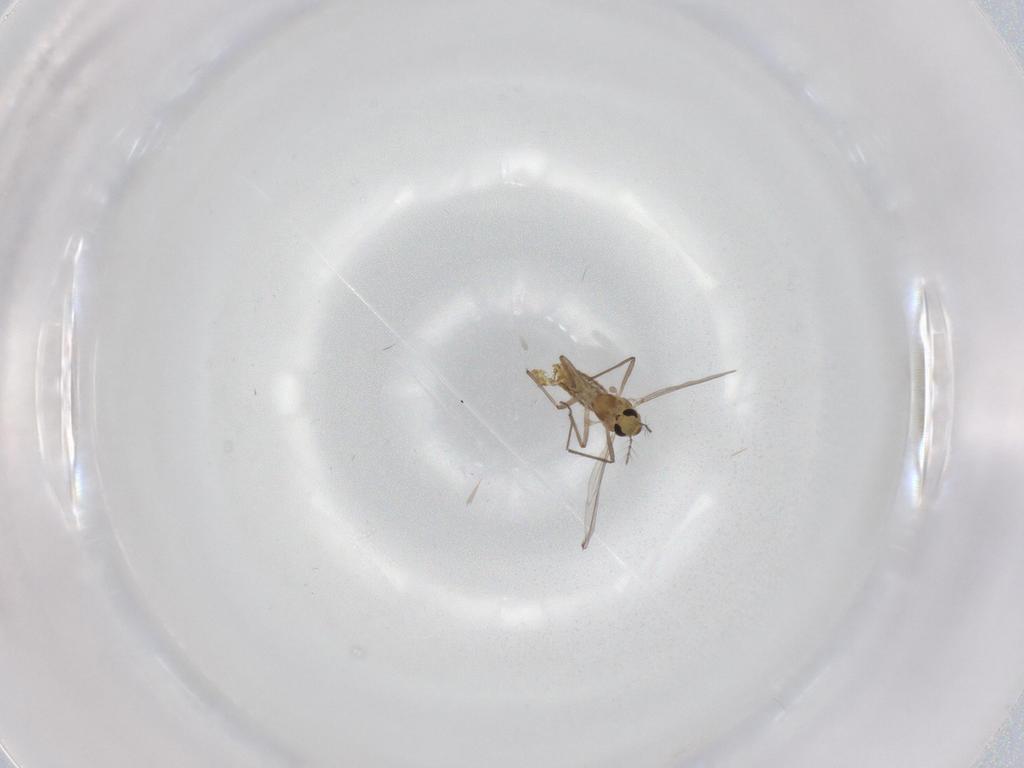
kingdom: Animalia
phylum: Arthropoda
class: Insecta
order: Diptera
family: Chironomidae
